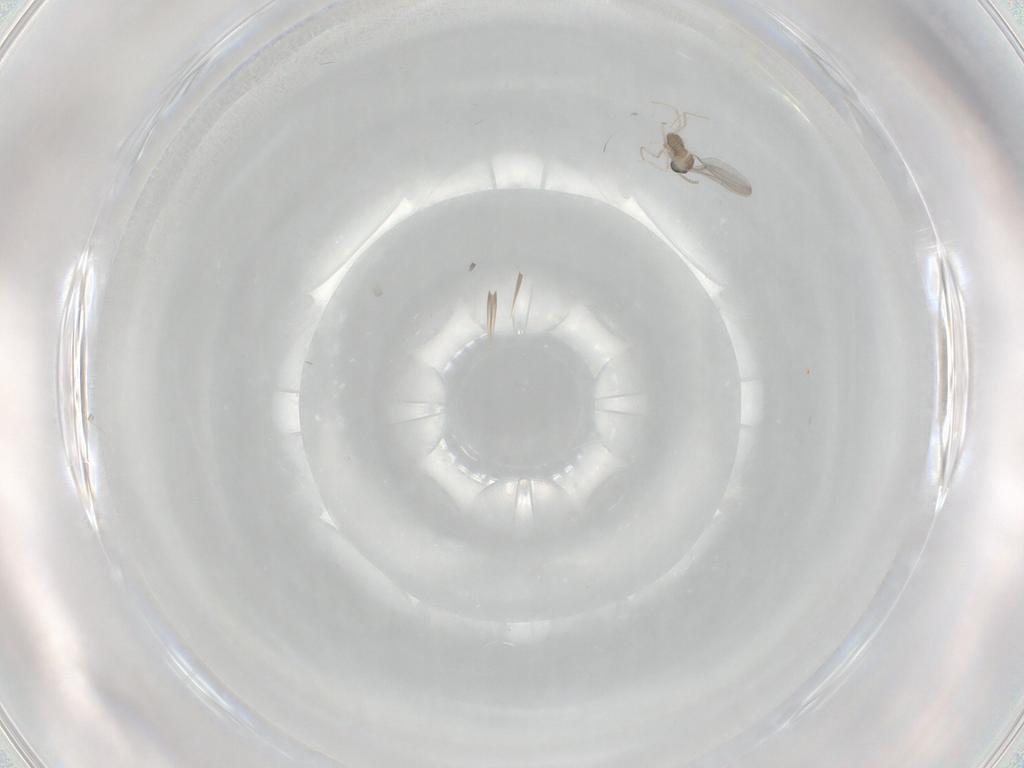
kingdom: Animalia
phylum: Arthropoda
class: Insecta
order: Diptera
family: Cecidomyiidae
